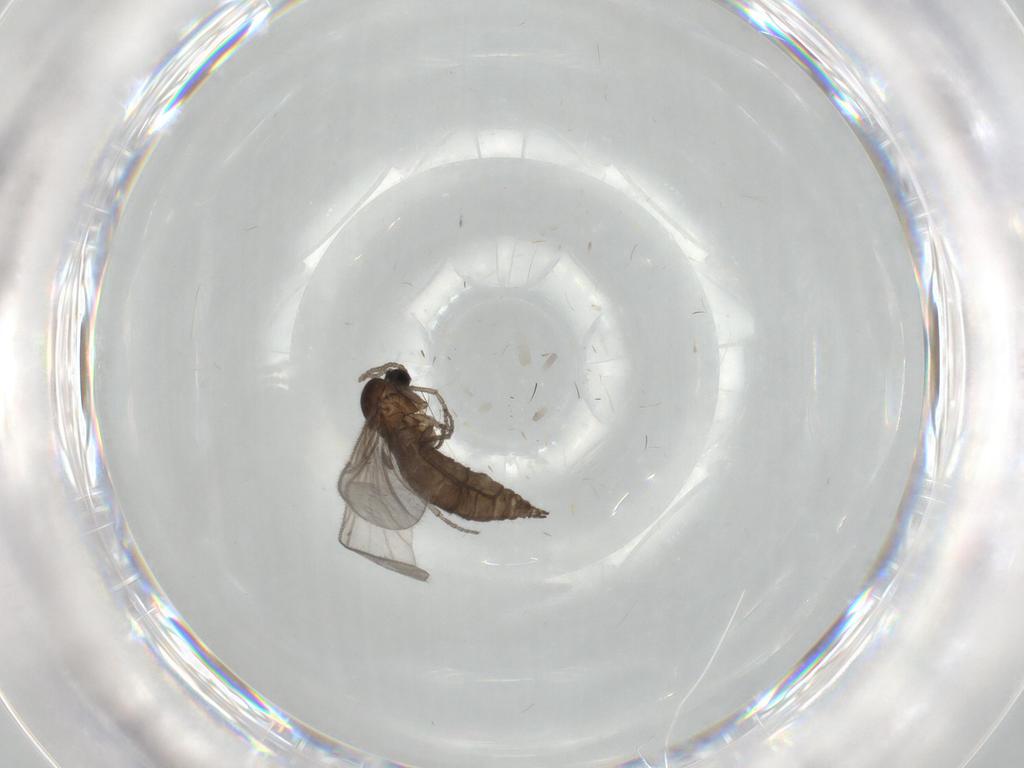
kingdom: Animalia
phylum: Arthropoda
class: Insecta
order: Diptera
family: Sciaridae
